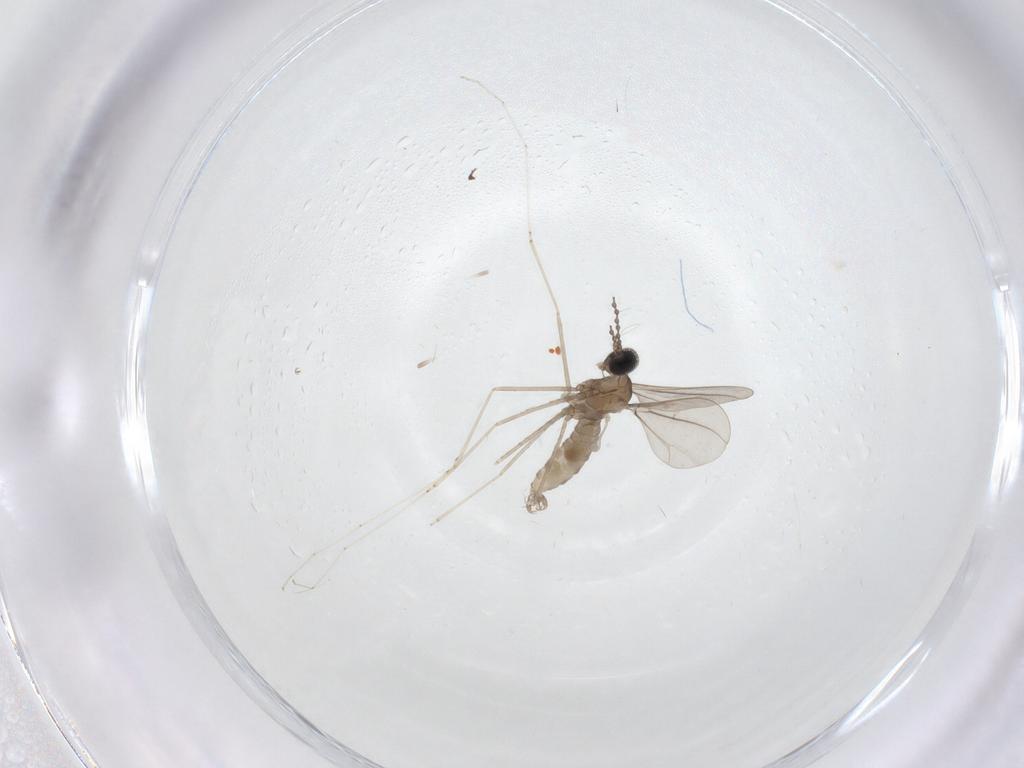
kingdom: Animalia
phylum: Arthropoda
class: Insecta
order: Diptera
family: Cecidomyiidae
